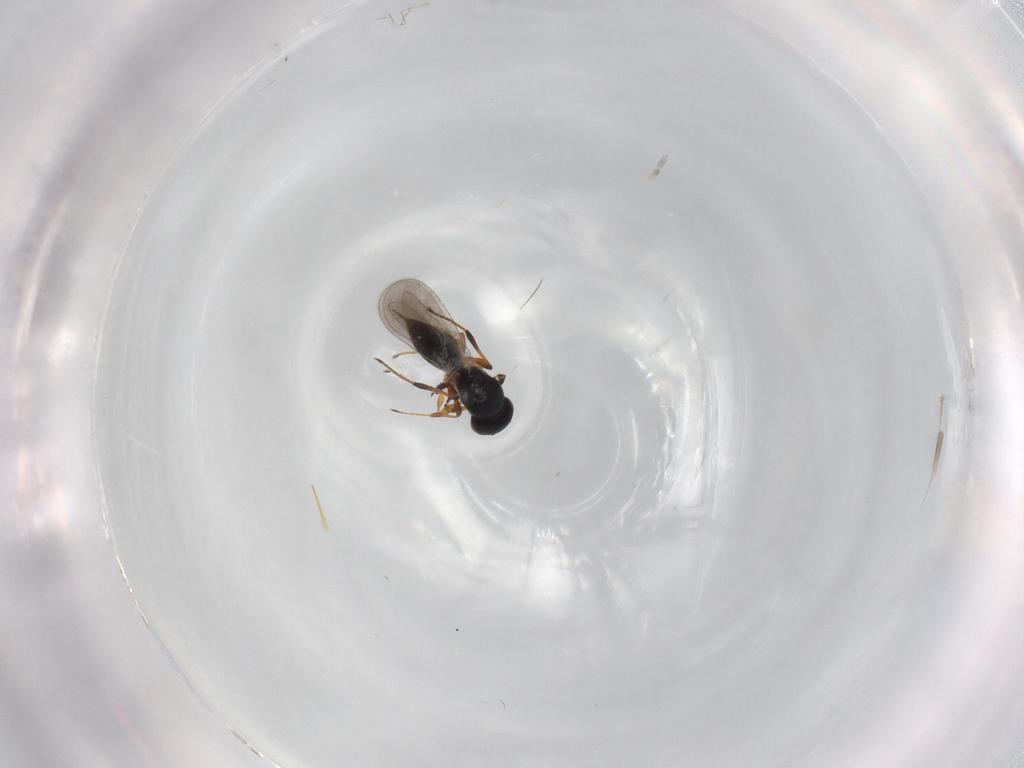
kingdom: Animalia
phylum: Arthropoda
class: Insecta
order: Hymenoptera
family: Platygastridae
